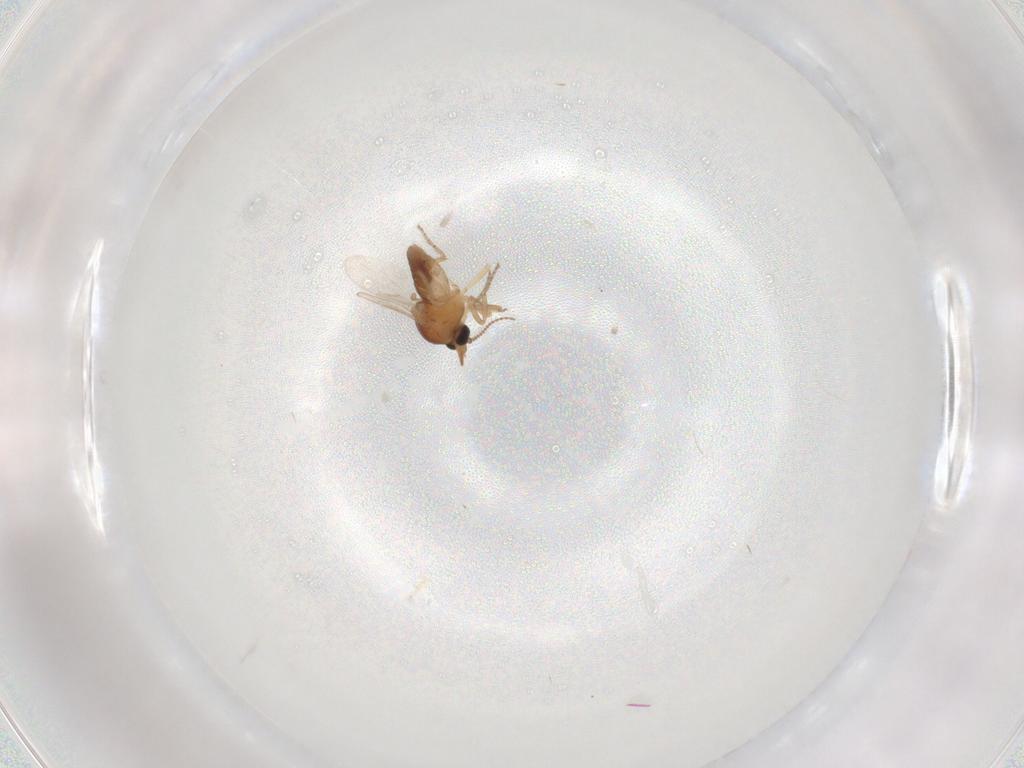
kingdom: Animalia
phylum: Arthropoda
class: Insecta
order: Diptera
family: Ceratopogonidae
